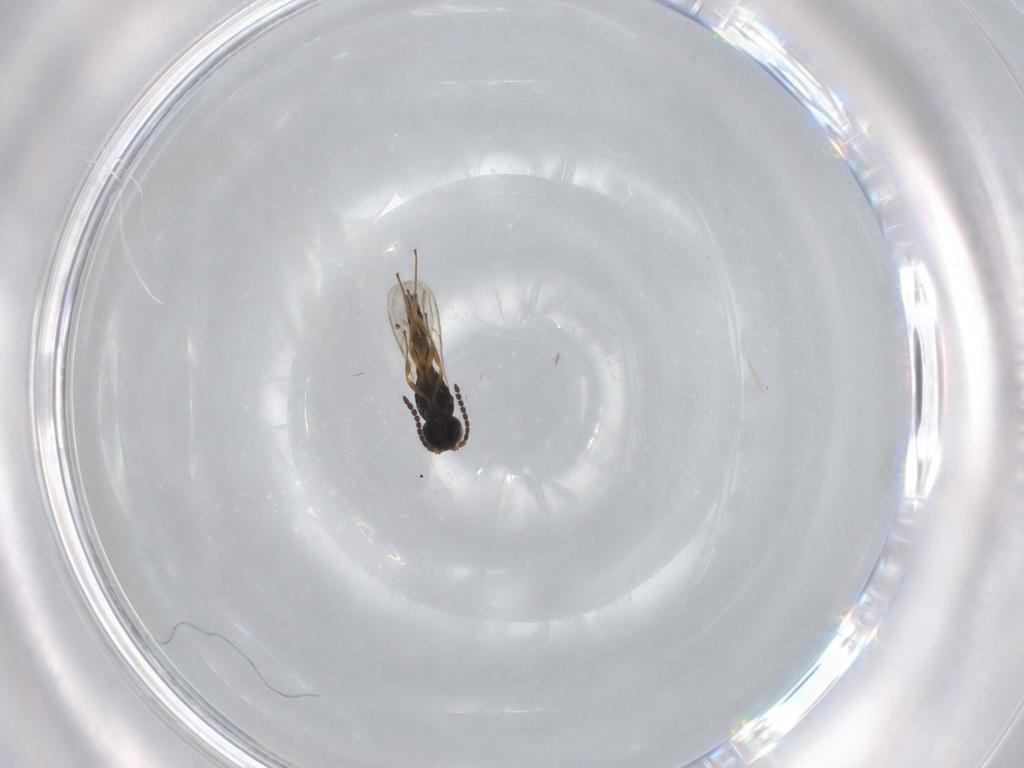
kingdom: Animalia
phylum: Arthropoda
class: Insecta
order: Hymenoptera
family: Scelionidae
